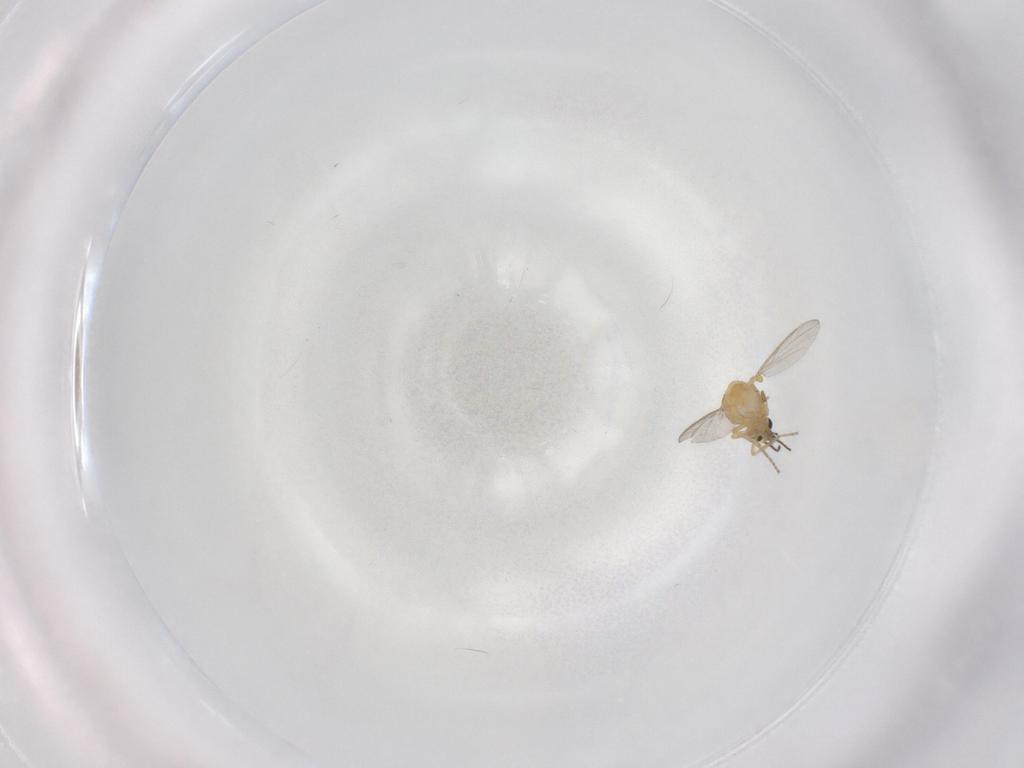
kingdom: Animalia
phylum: Arthropoda
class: Insecta
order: Diptera
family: Ceratopogonidae
